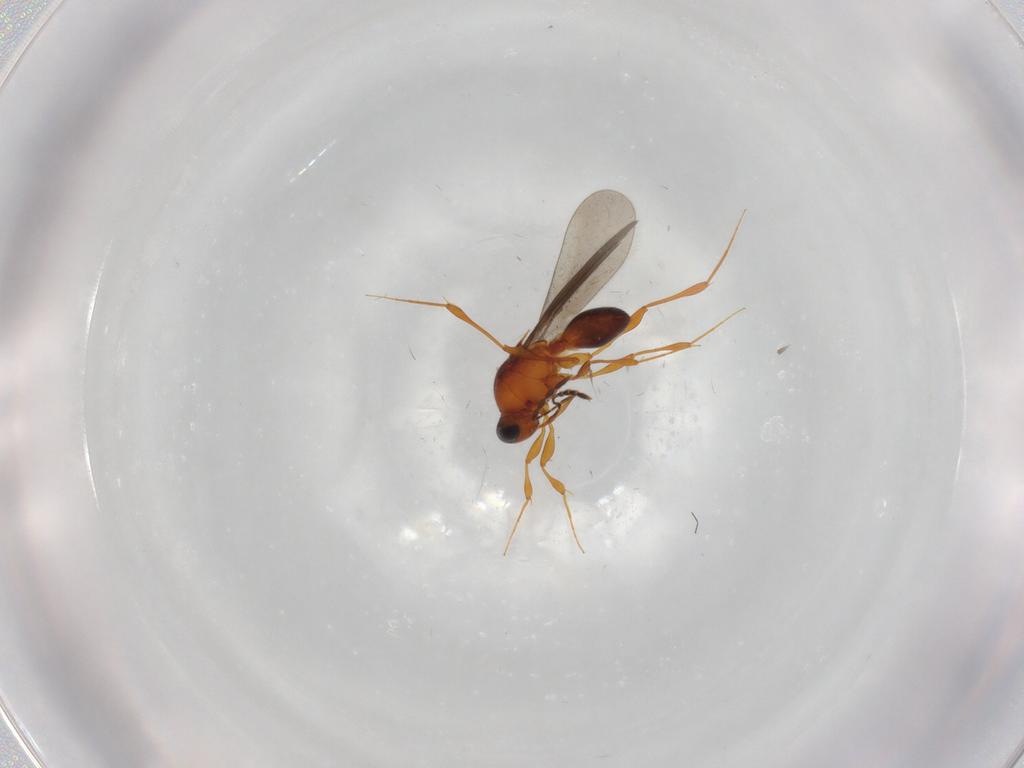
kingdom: Animalia
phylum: Arthropoda
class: Insecta
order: Hymenoptera
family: Platygastridae
